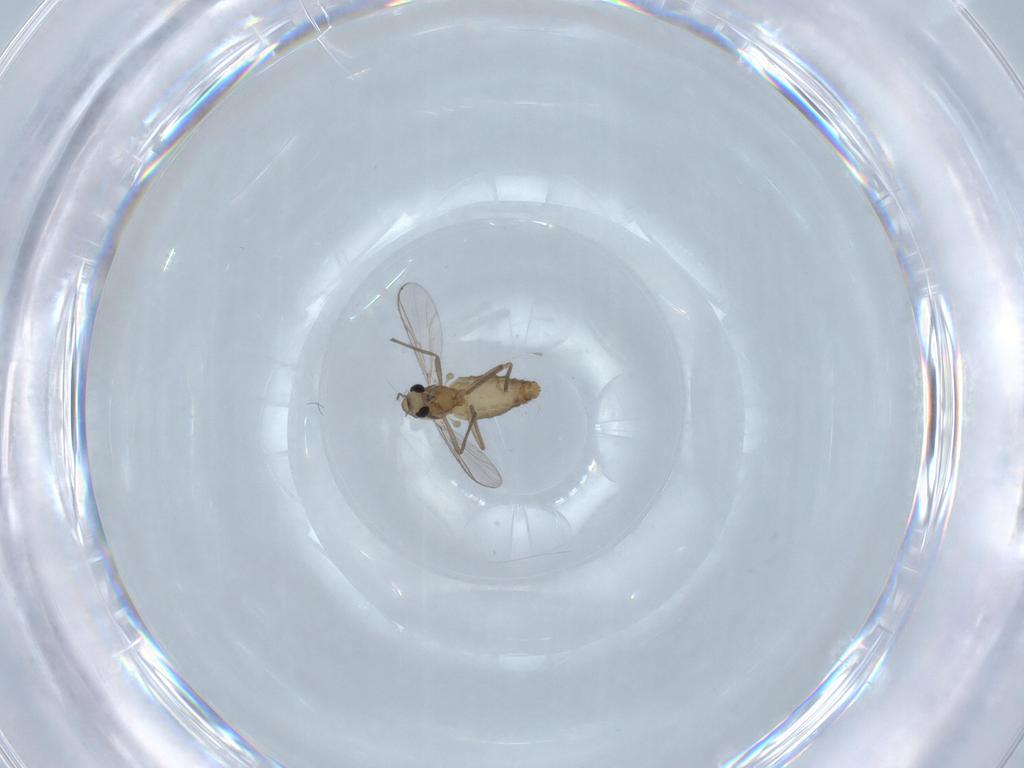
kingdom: Animalia
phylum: Arthropoda
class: Insecta
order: Diptera
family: Chironomidae
